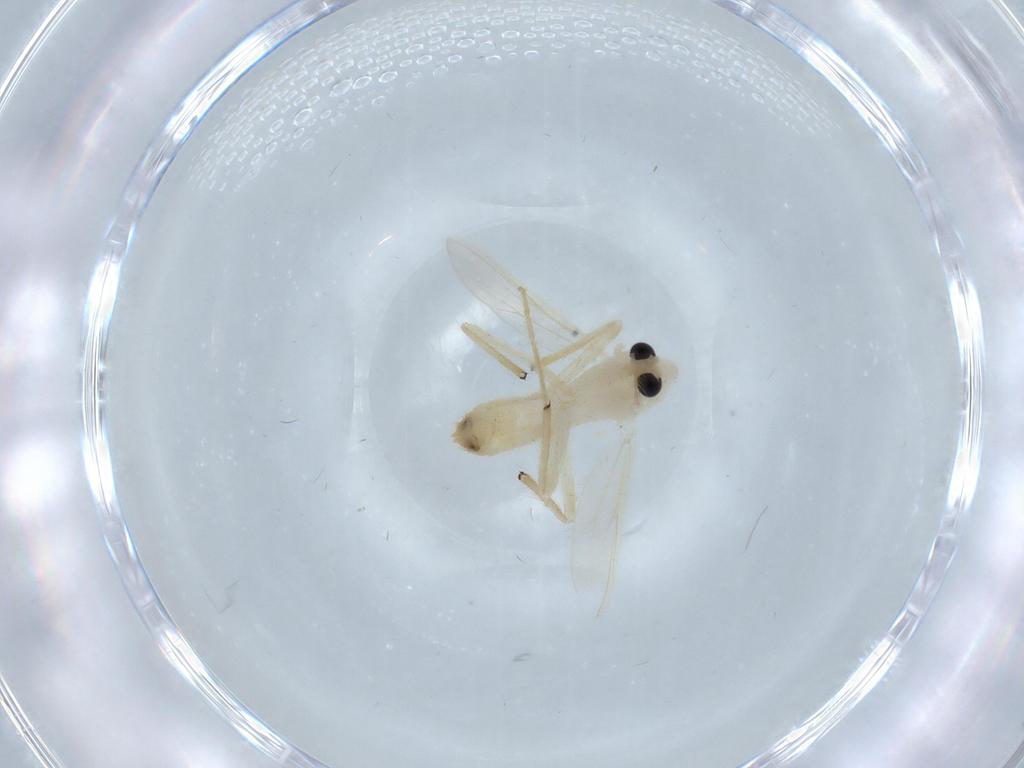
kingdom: Animalia
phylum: Arthropoda
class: Insecta
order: Diptera
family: Chironomidae
